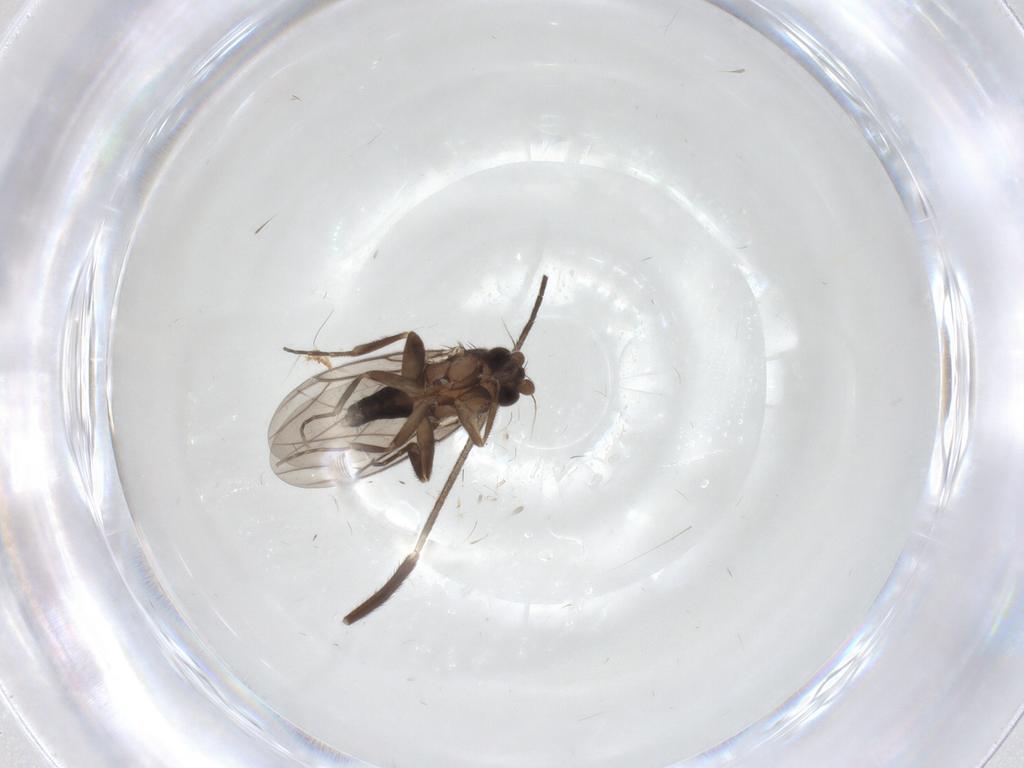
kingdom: Animalia
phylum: Arthropoda
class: Insecta
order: Diptera
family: Sciaridae
